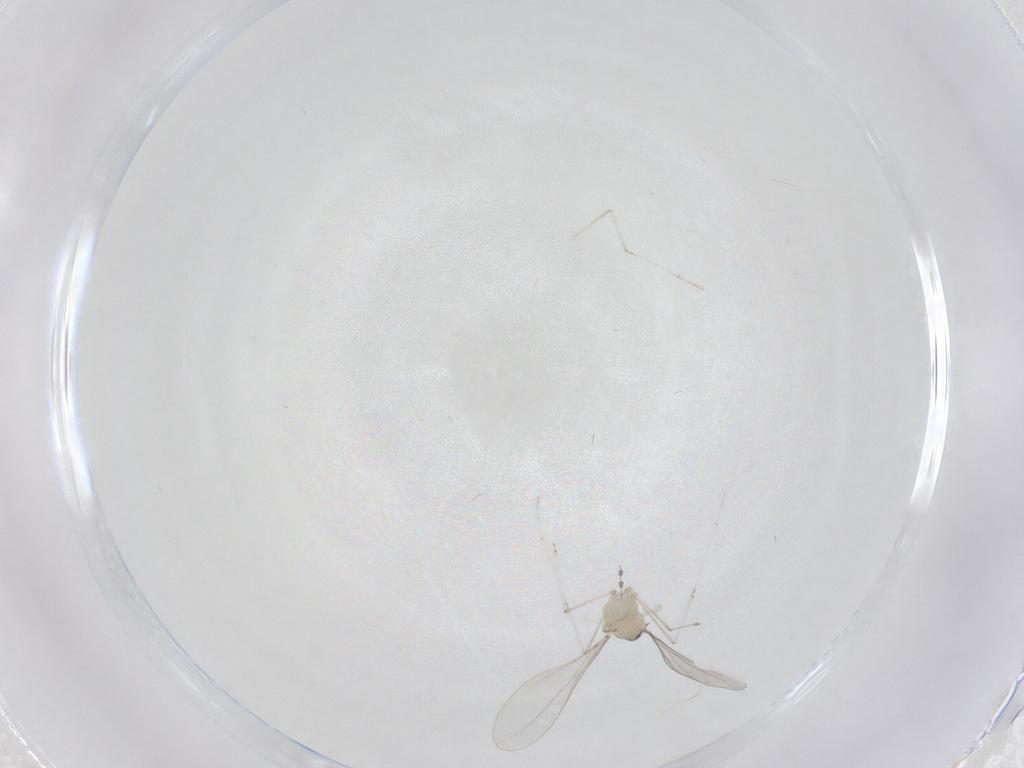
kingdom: Animalia
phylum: Arthropoda
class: Insecta
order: Diptera
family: Cecidomyiidae
